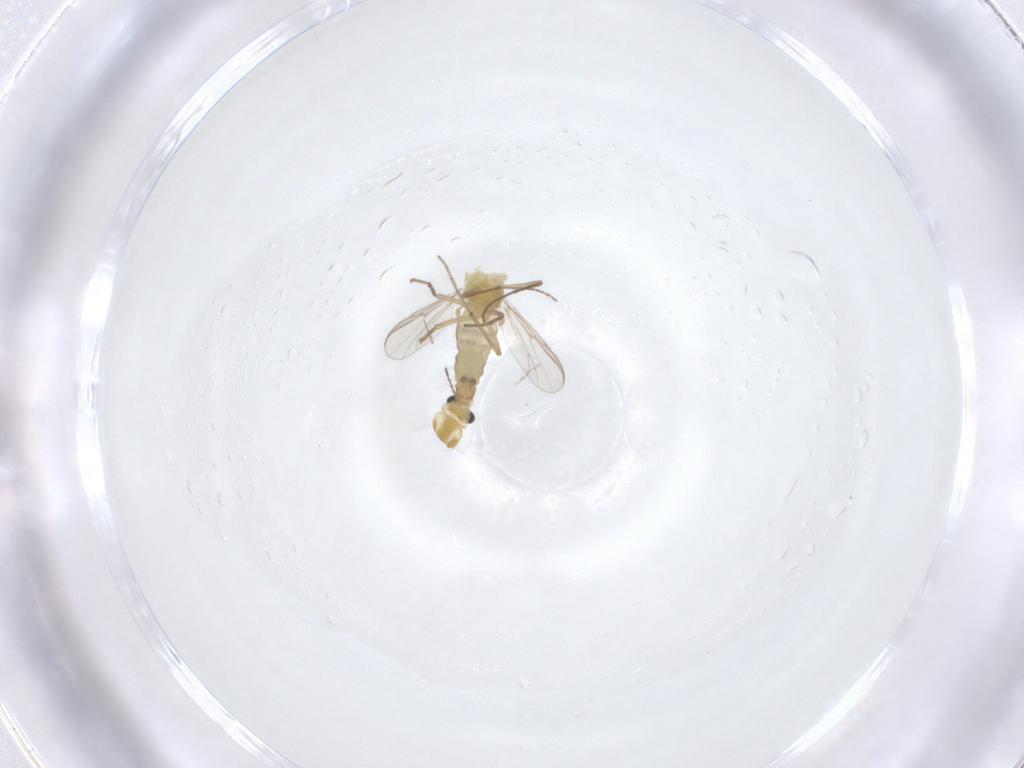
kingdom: Animalia
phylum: Arthropoda
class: Insecta
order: Diptera
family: Chironomidae
